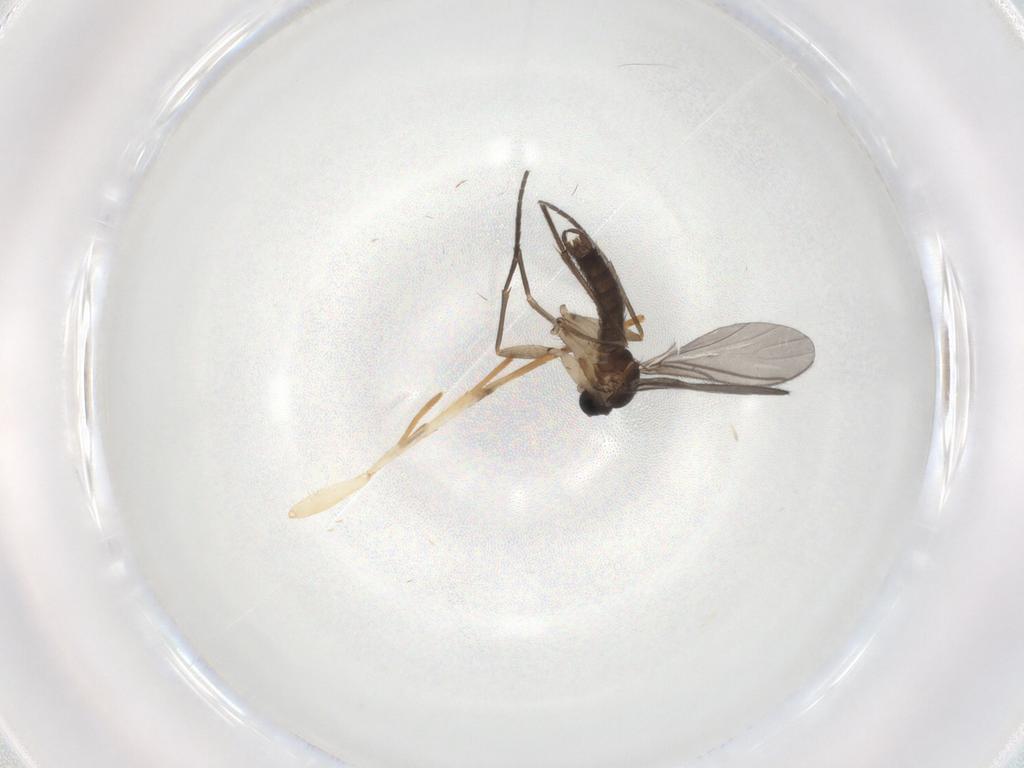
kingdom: Animalia
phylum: Arthropoda
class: Insecta
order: Diptera
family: Sciaridae
